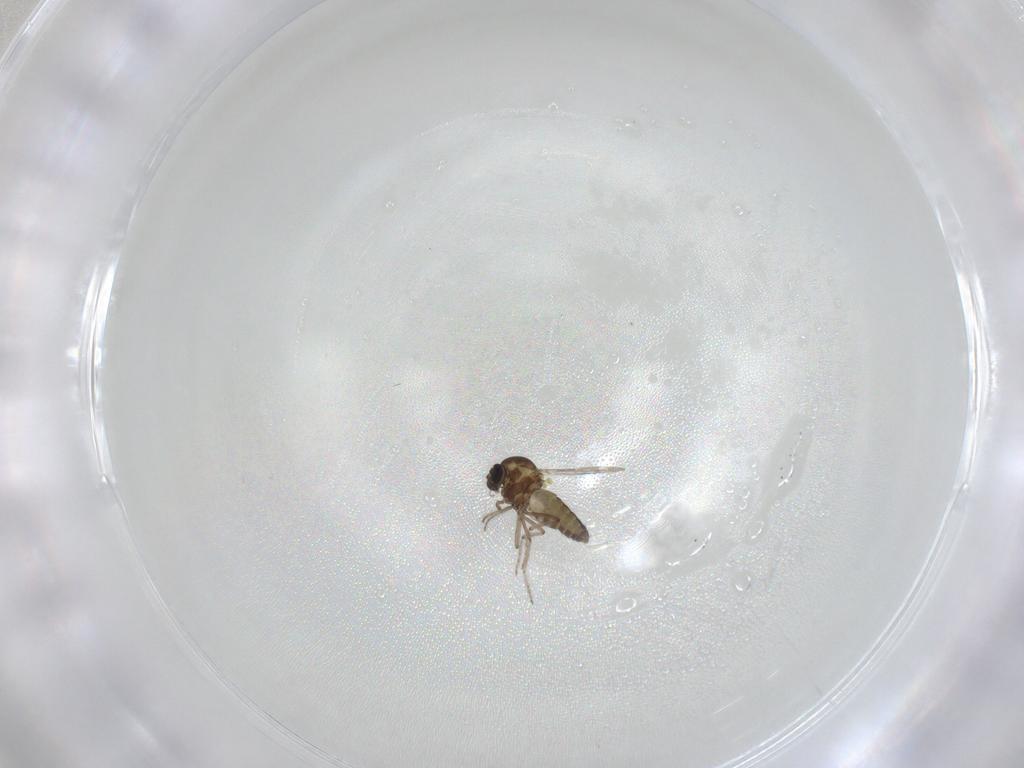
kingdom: Animalia
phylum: Arthropoda
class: Insecta
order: Diptera
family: Ceratopogonidae
